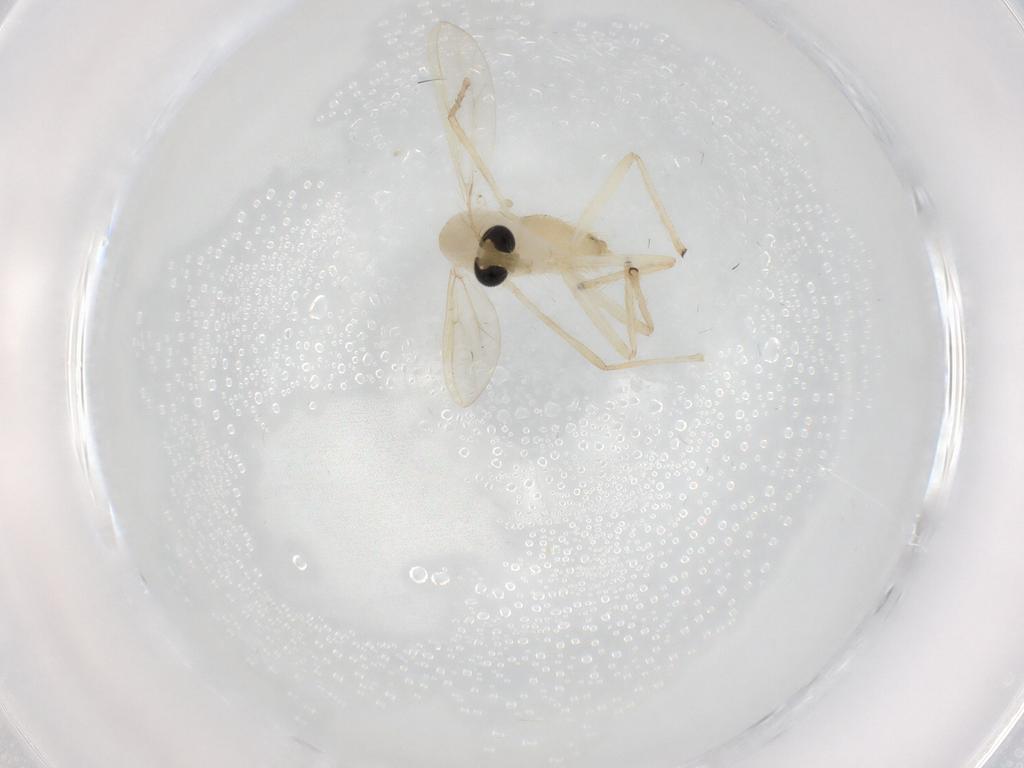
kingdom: Animalia
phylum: Arthropoda
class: Insecta
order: Diptera
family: Chironomidae
